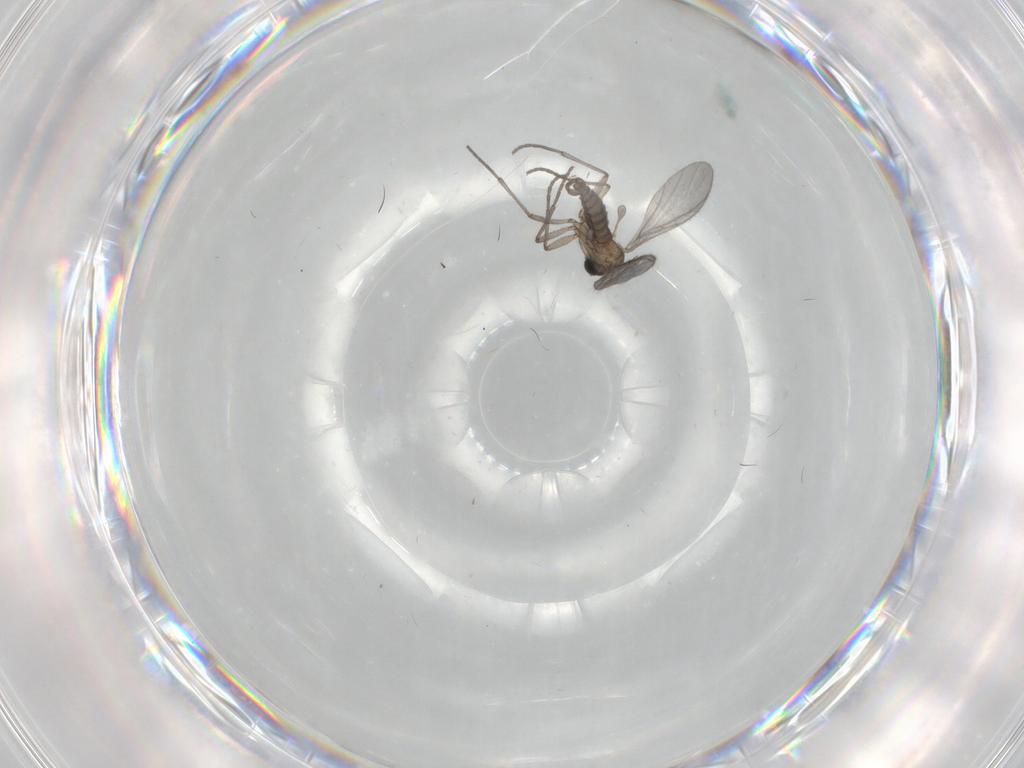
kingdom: Animalia
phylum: Arthropoda
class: Insecta
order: Diptera
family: Sciaridae
